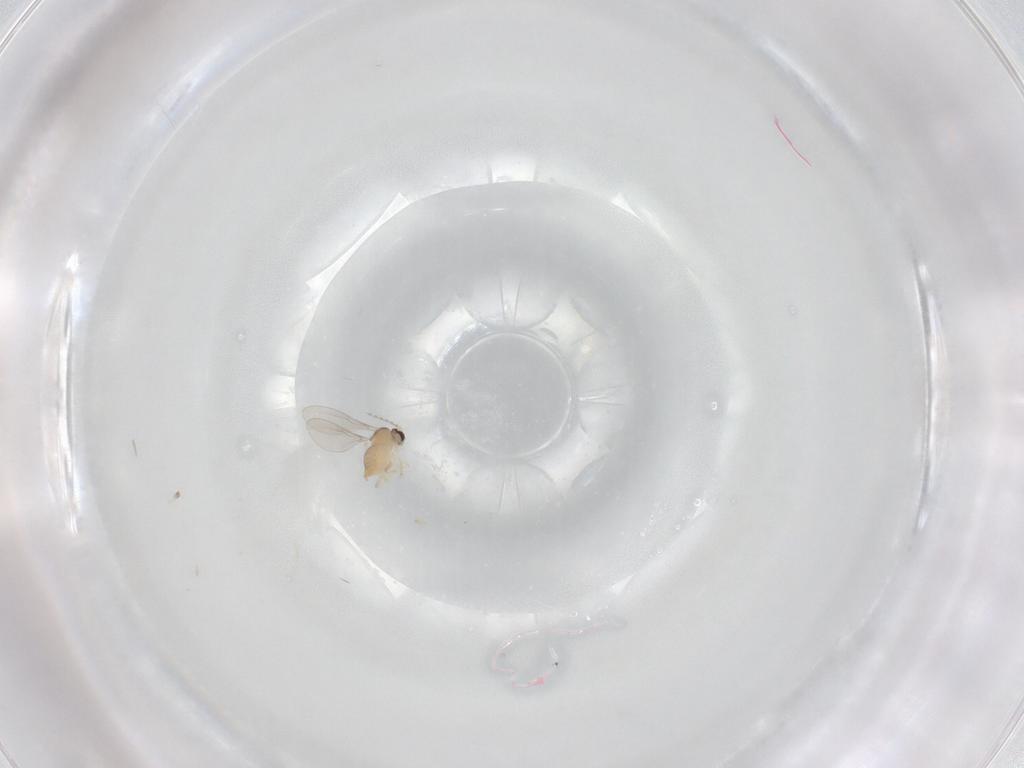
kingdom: Animalia
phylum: Arthropoda
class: Insecta
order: Diptera
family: Cecidomyiidae
